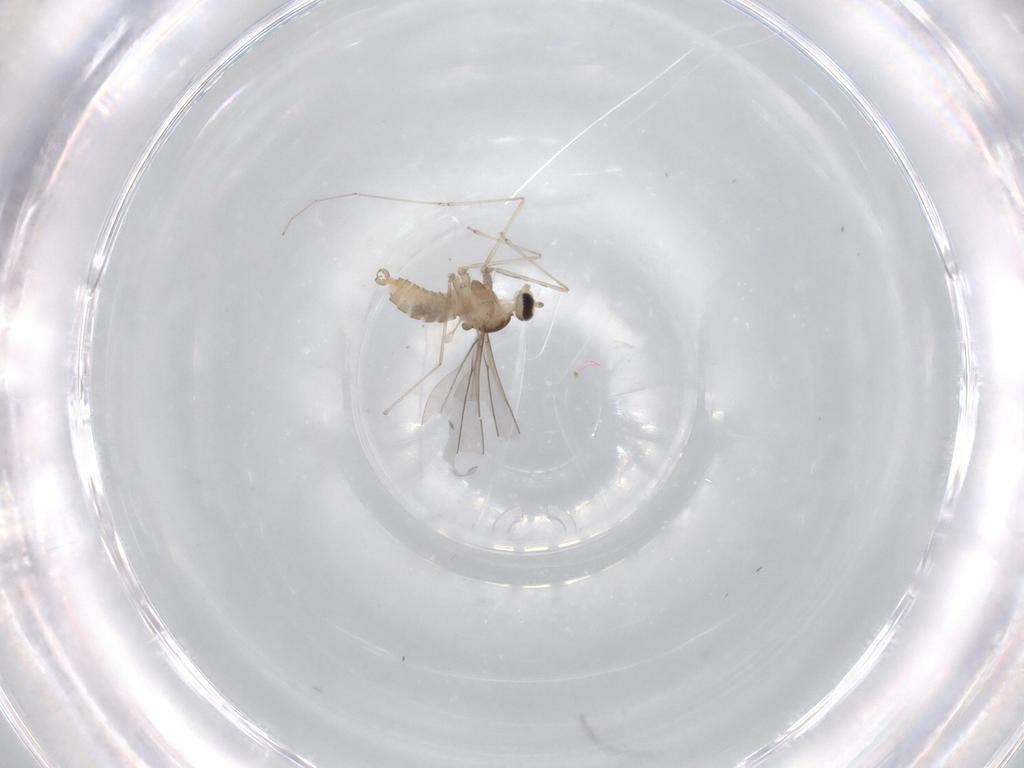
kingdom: Animalia
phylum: Arthropoda
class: Insecta
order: Diptera
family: Cecidomyiidae
